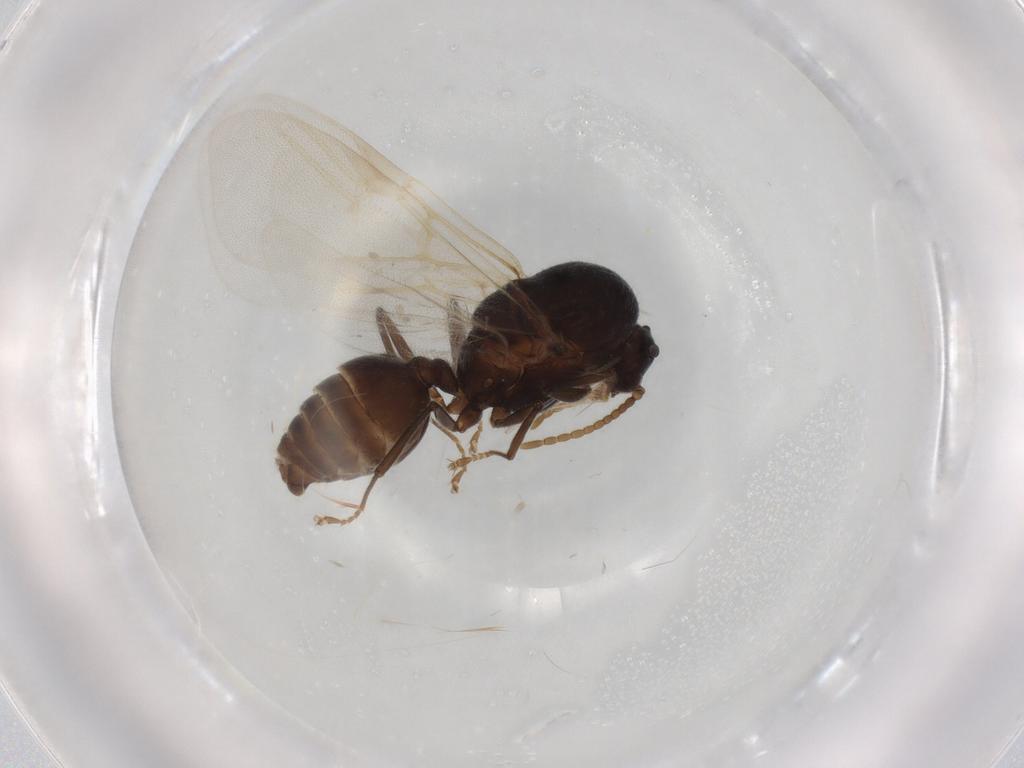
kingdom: Animalia
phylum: Arthropoda
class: Insecta
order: Hymenoptera
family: Formicidae
